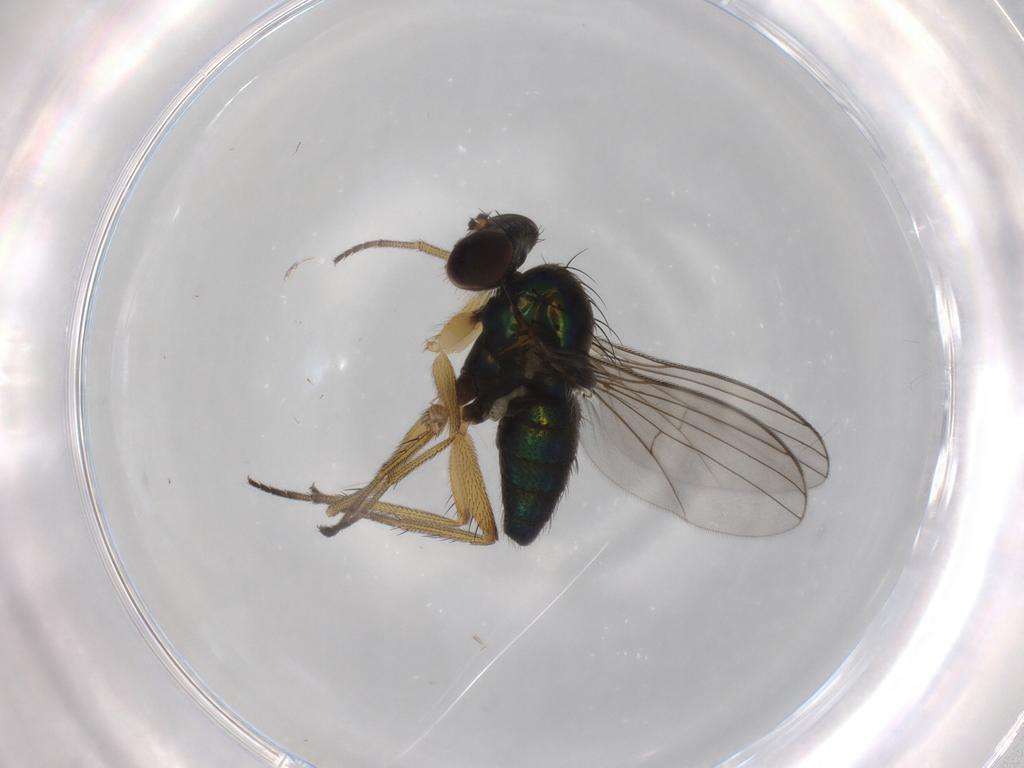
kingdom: Animalia
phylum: Arthropoda
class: Insecta
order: Diptera
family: Dolichopodidae
